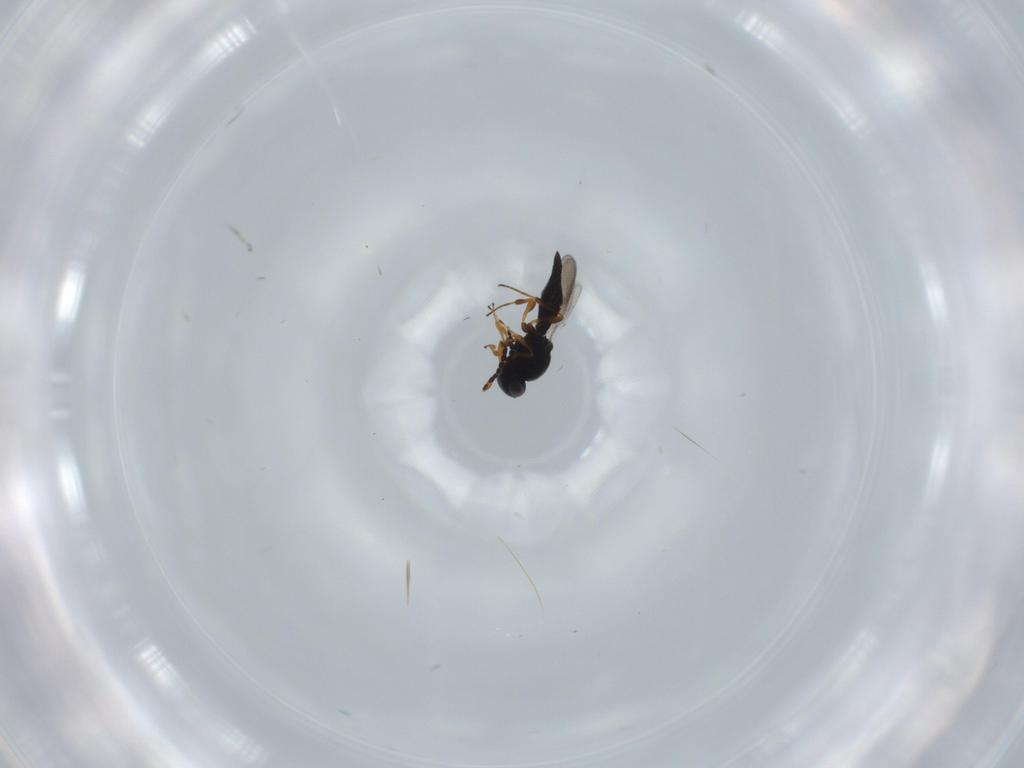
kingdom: Animalia
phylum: Arthropoda
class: Insecta
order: Hymenoptera
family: Platygastridae
